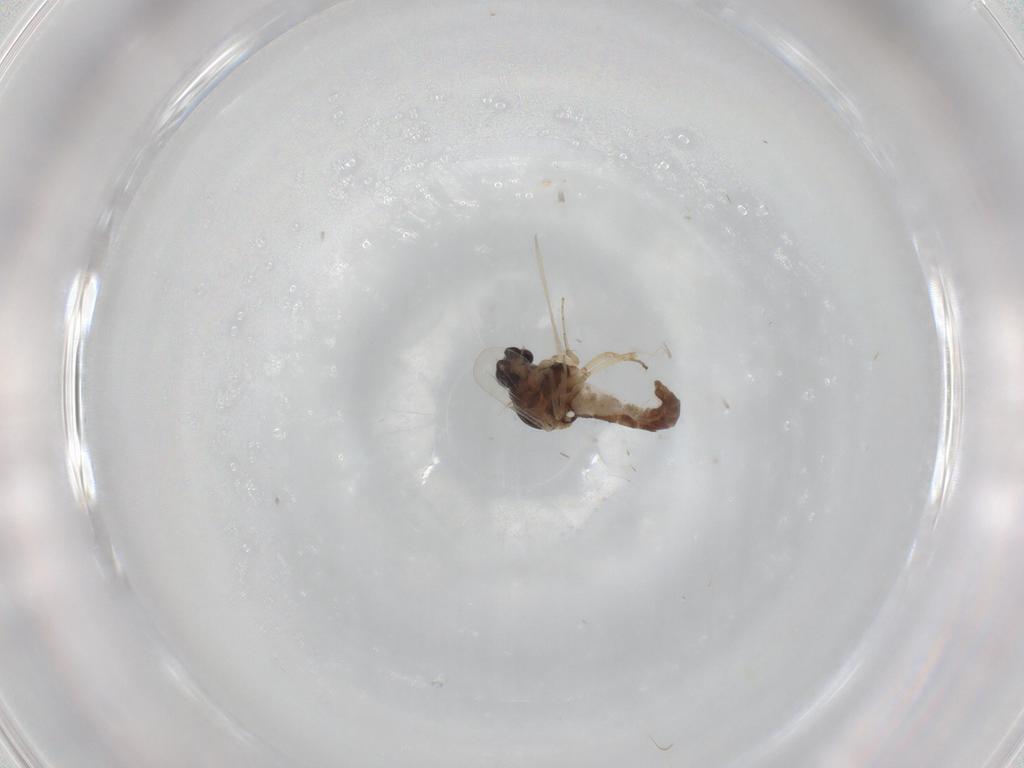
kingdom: Animalia
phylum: Arthropoda
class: Insecta
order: Diptera
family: Ceratopogonidae
